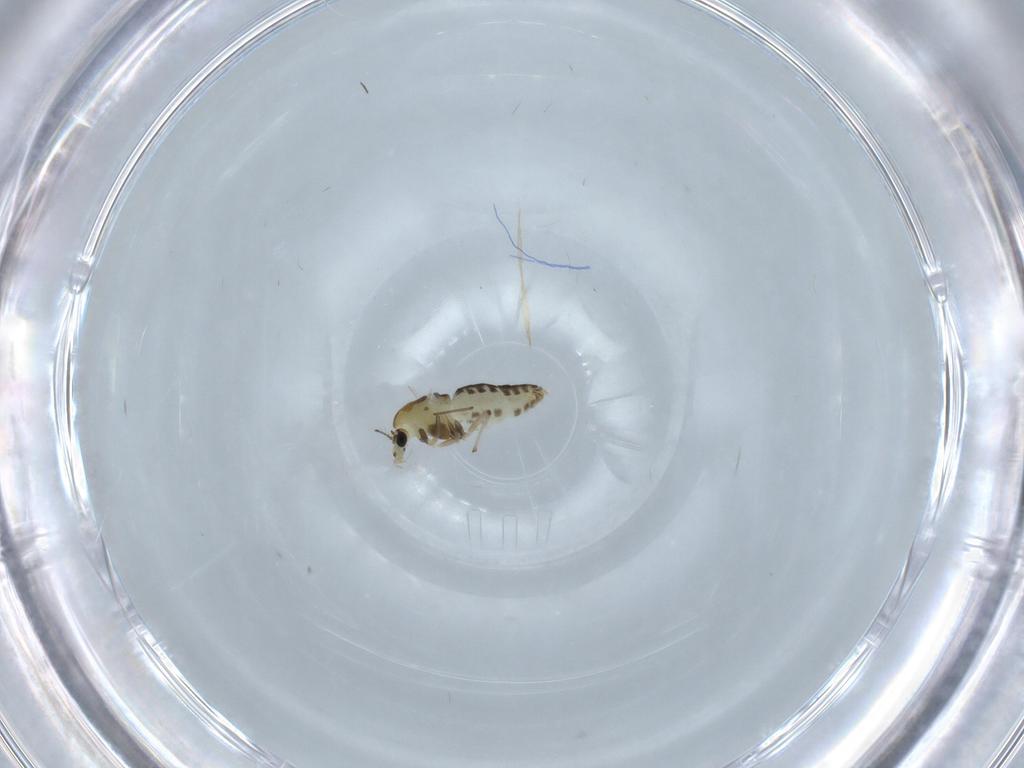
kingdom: Animalia
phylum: Arthropoda
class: Insecta
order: Diptera
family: Chironomidae
